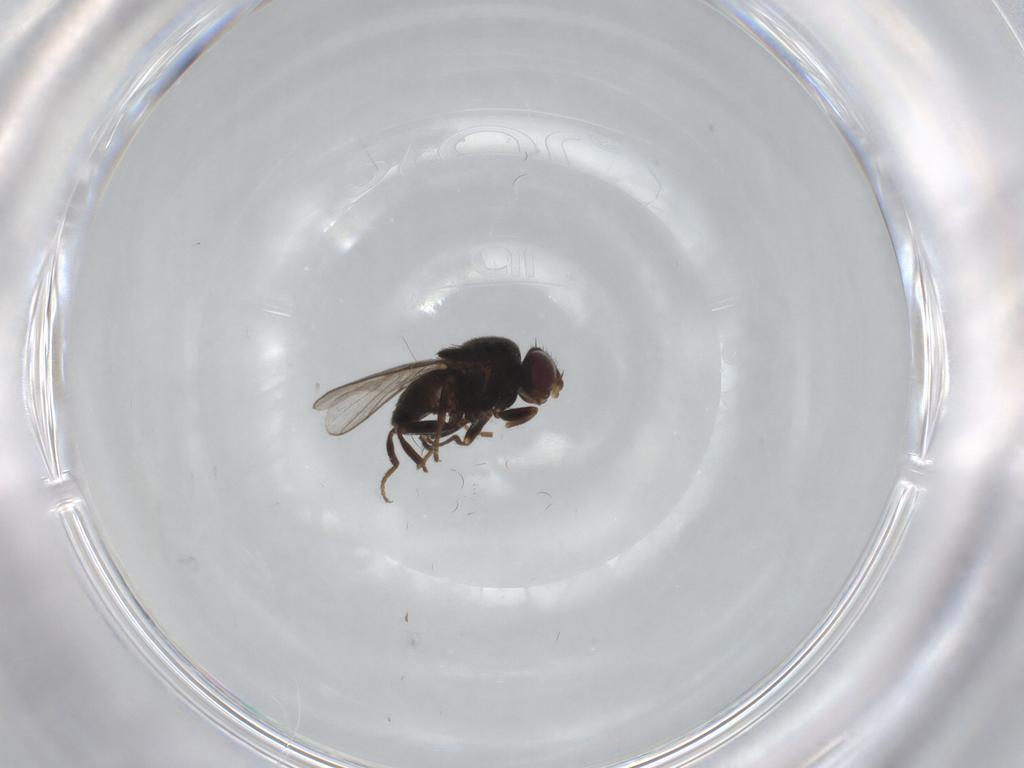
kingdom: Animalia
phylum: Arthropoda
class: Insecta
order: Diptera
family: Chloropidae
